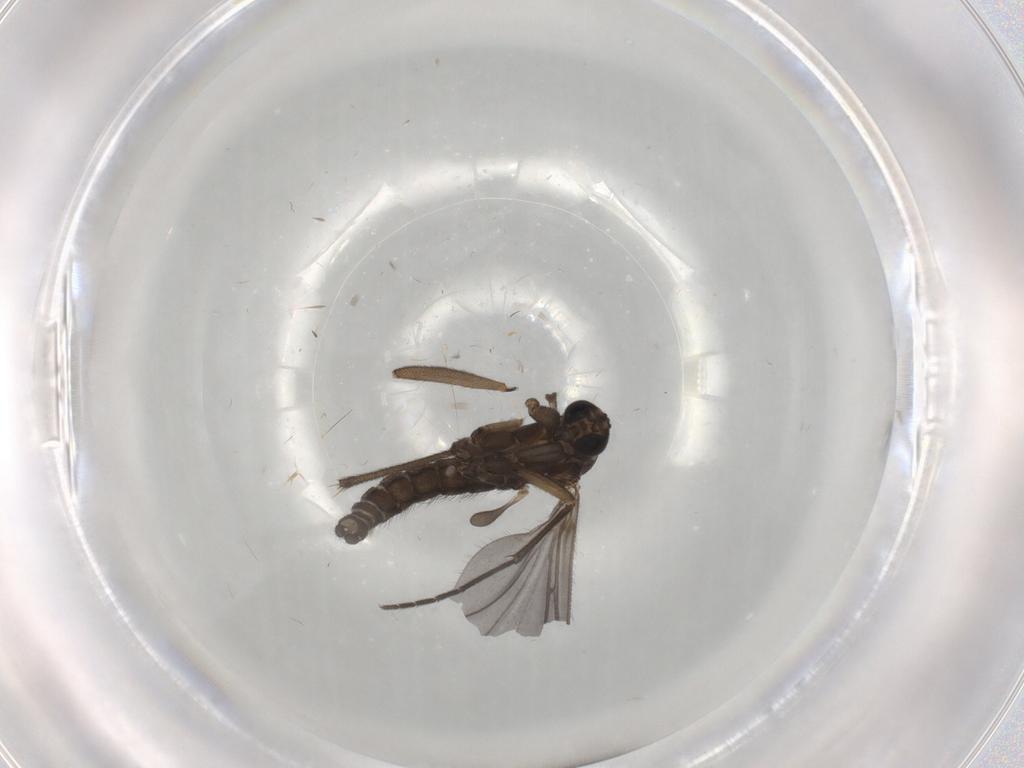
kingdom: Animalia
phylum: Arthropoda
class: Insecta
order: Diptera
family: Sciaridae
